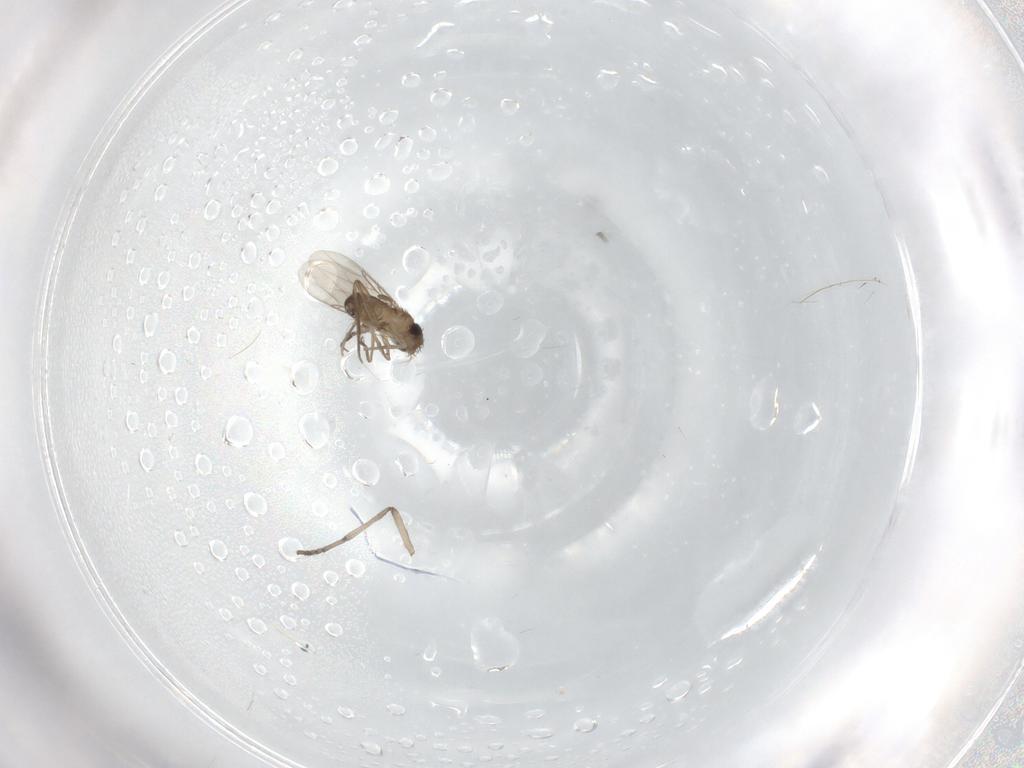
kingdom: Animalia
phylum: Arthropoda
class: Insecta
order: Diptera
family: Psychodidae
